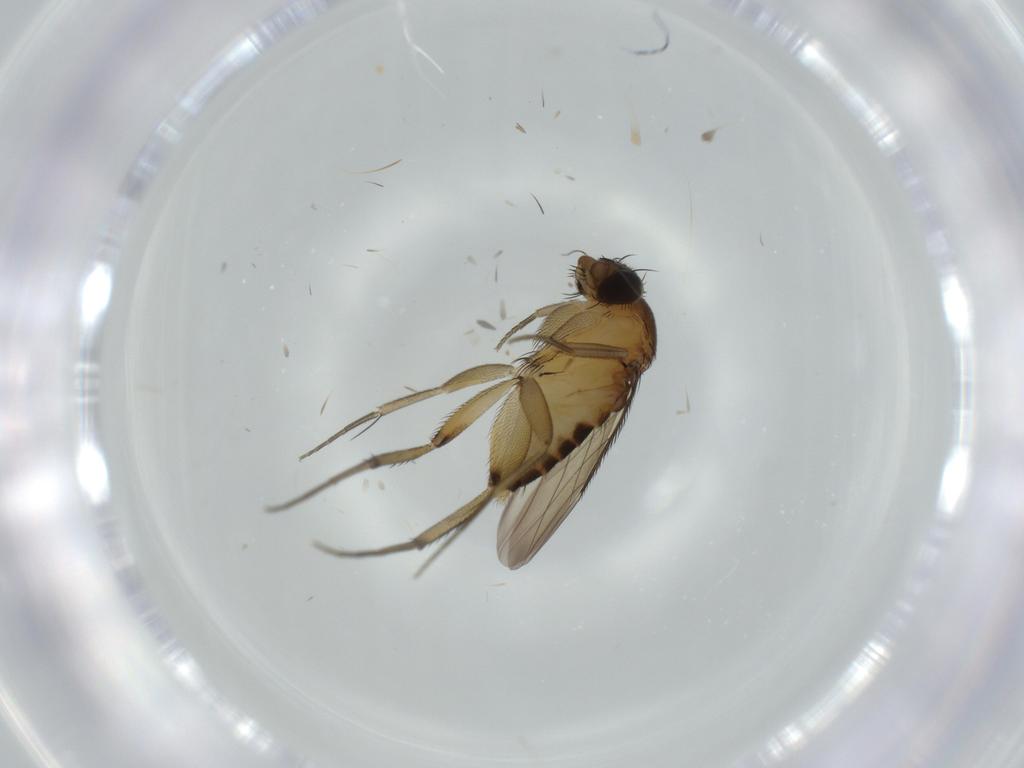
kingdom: Animalia
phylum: Arthropoda
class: Insecta
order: Diptera
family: Phoridae
